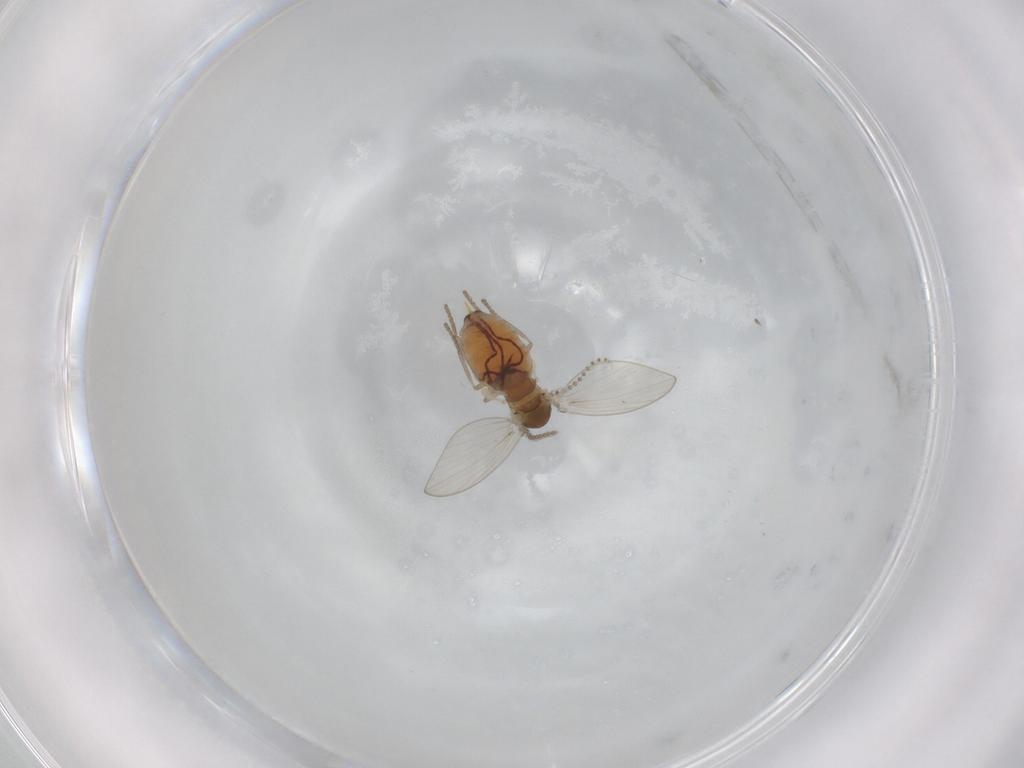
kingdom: Animalia
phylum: Arthropoda
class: Insecta
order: Diptera
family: Psychodidae
